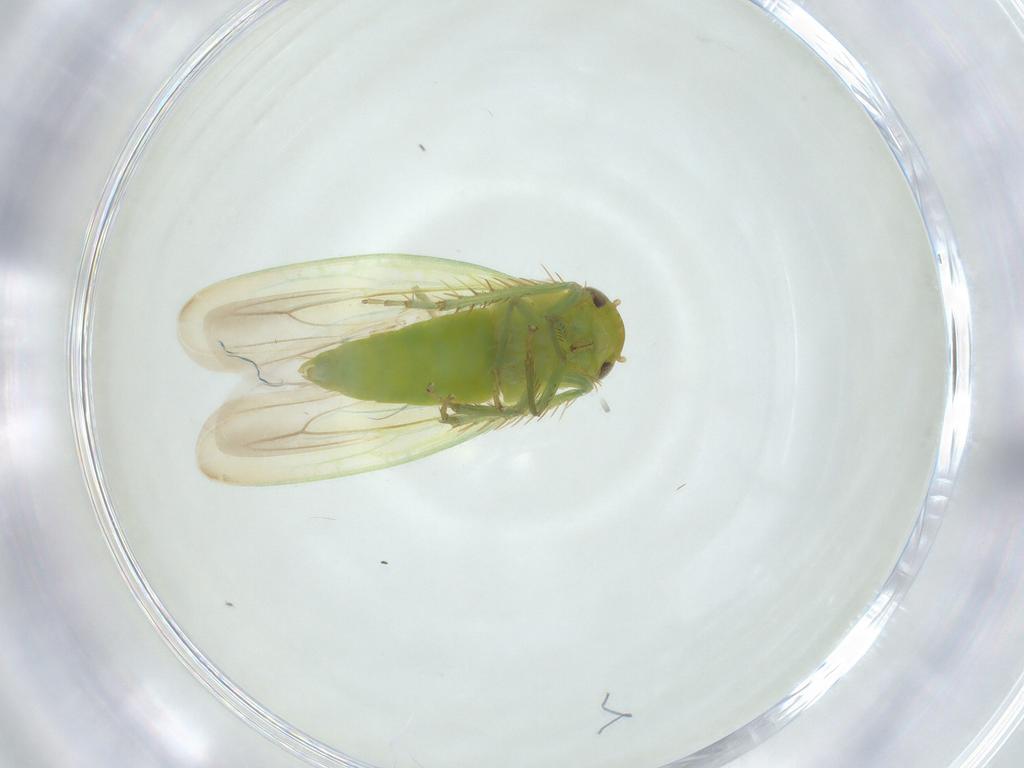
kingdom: Animalia
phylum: Arthropoda
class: Insecta
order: Hemiptera
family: Cicadellidae
